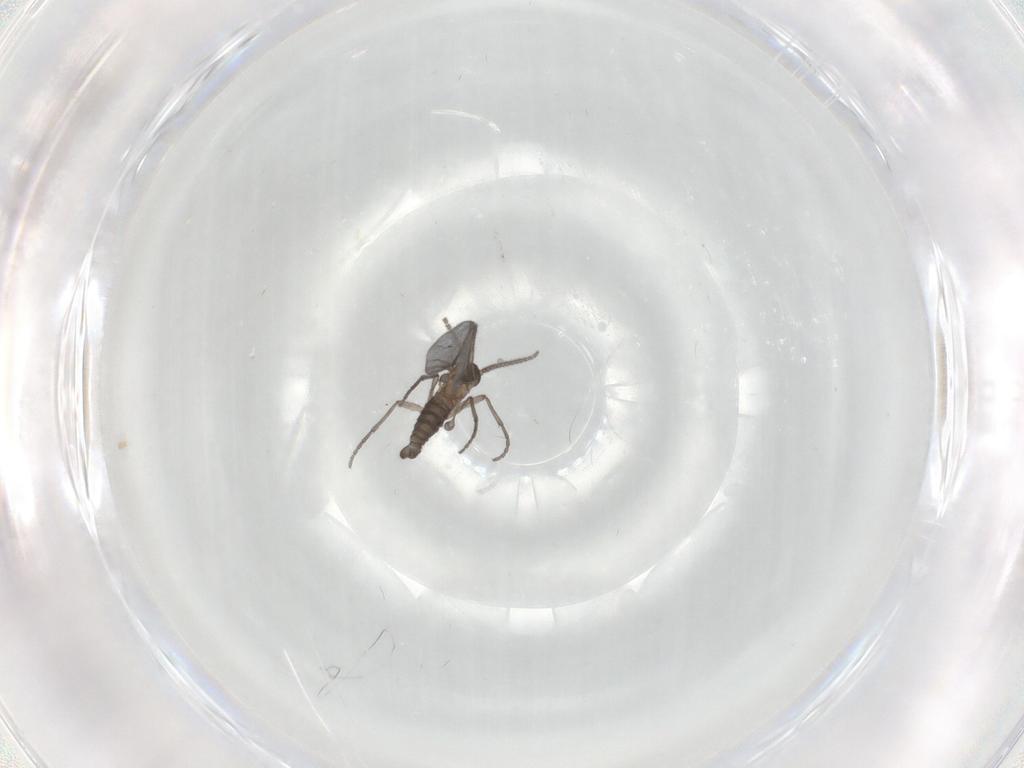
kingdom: Animalia
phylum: Arthropoda
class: Insecta
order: Diptera
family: Sciaridae
